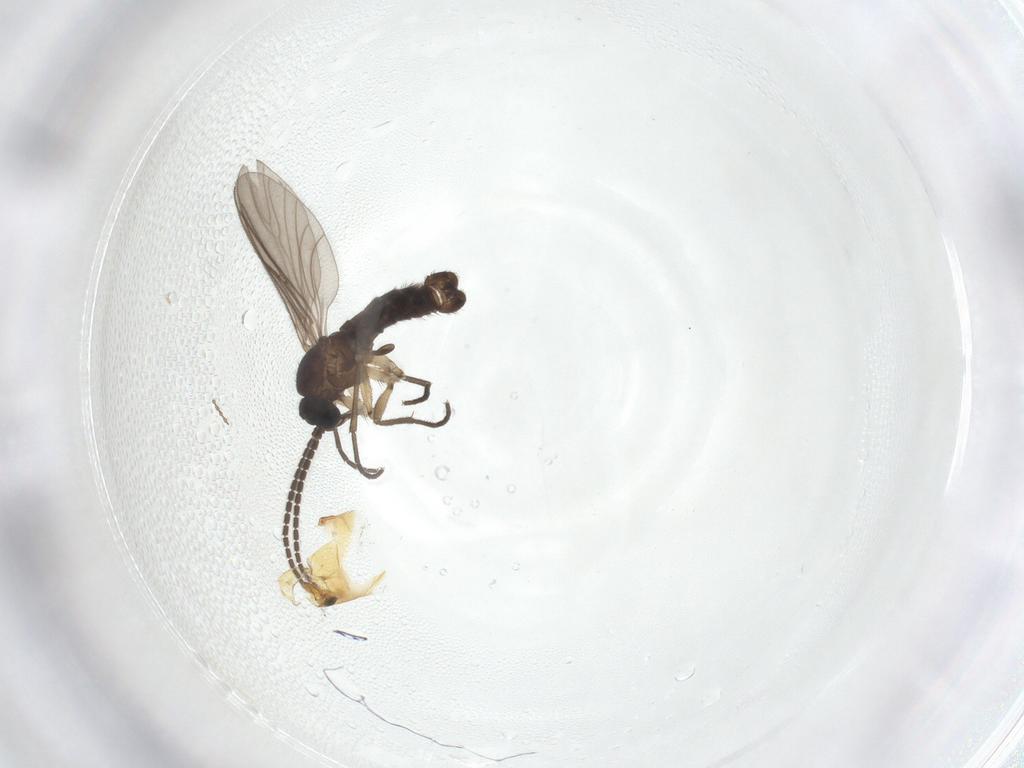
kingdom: Animalia
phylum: Arthropoda
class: Insecta
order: Diptera
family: Sciaridae
